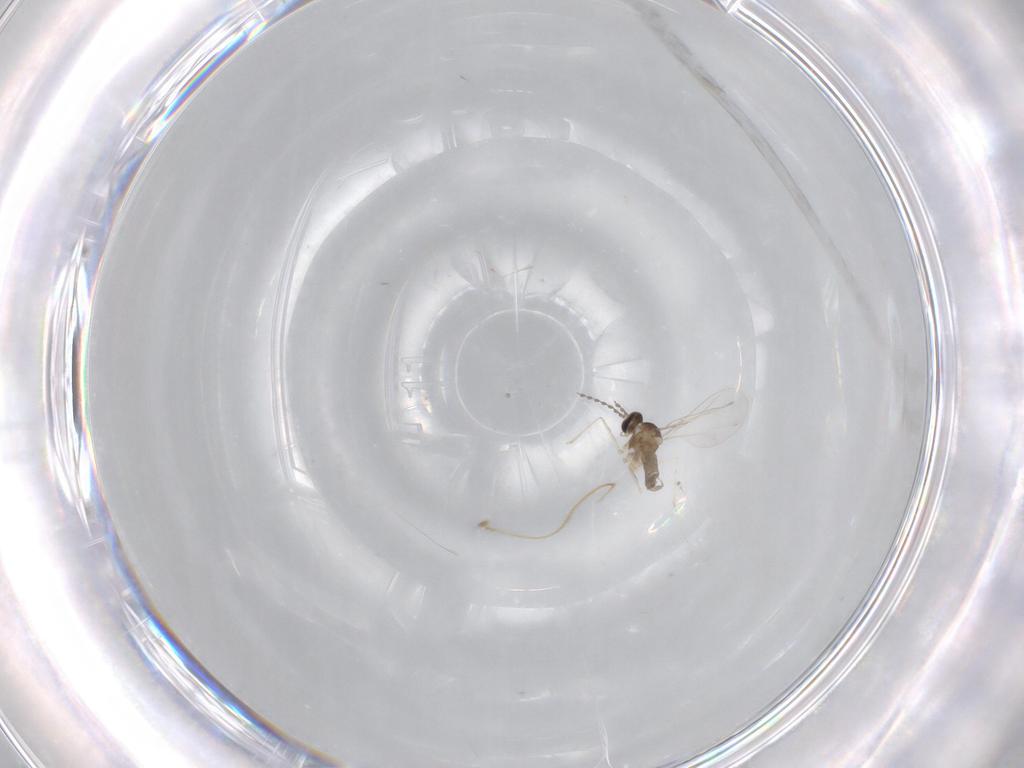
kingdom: Animalia
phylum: Arthropoda
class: Insecta
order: Diptera
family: Cecidomyiidae
